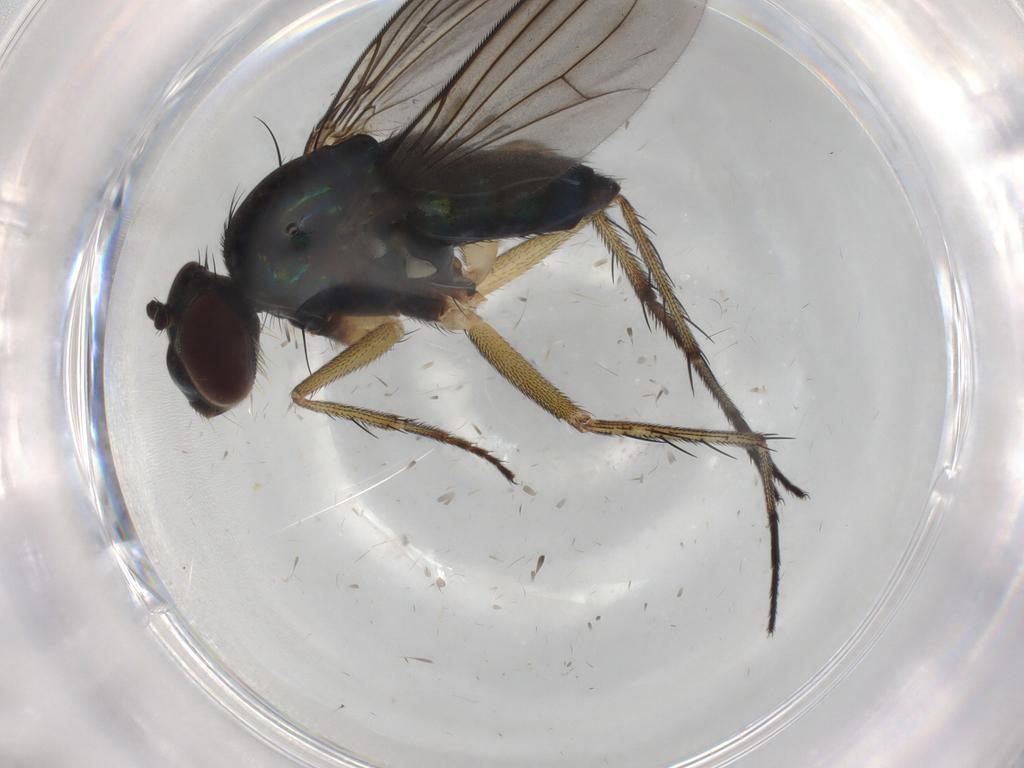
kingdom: Animalia
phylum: Arthropoda
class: Insecta
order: Diptera
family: Dolichopodidae
